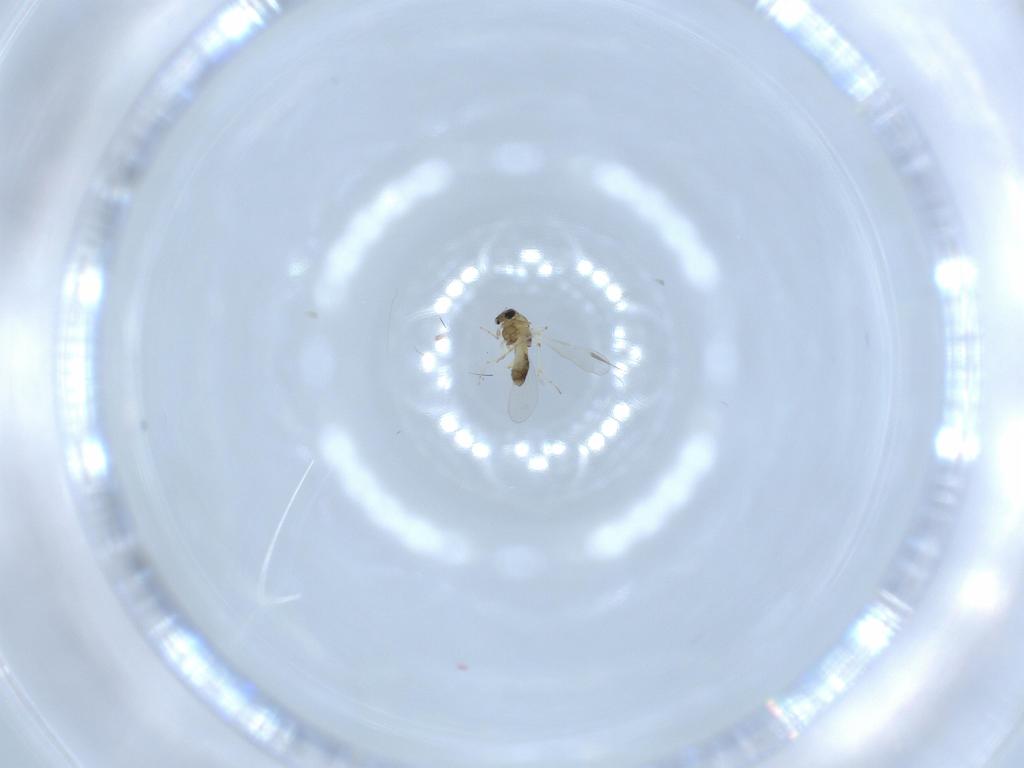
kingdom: Animalia
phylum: Arthropoda
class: Insecta
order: Diptera
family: Chironomidae
